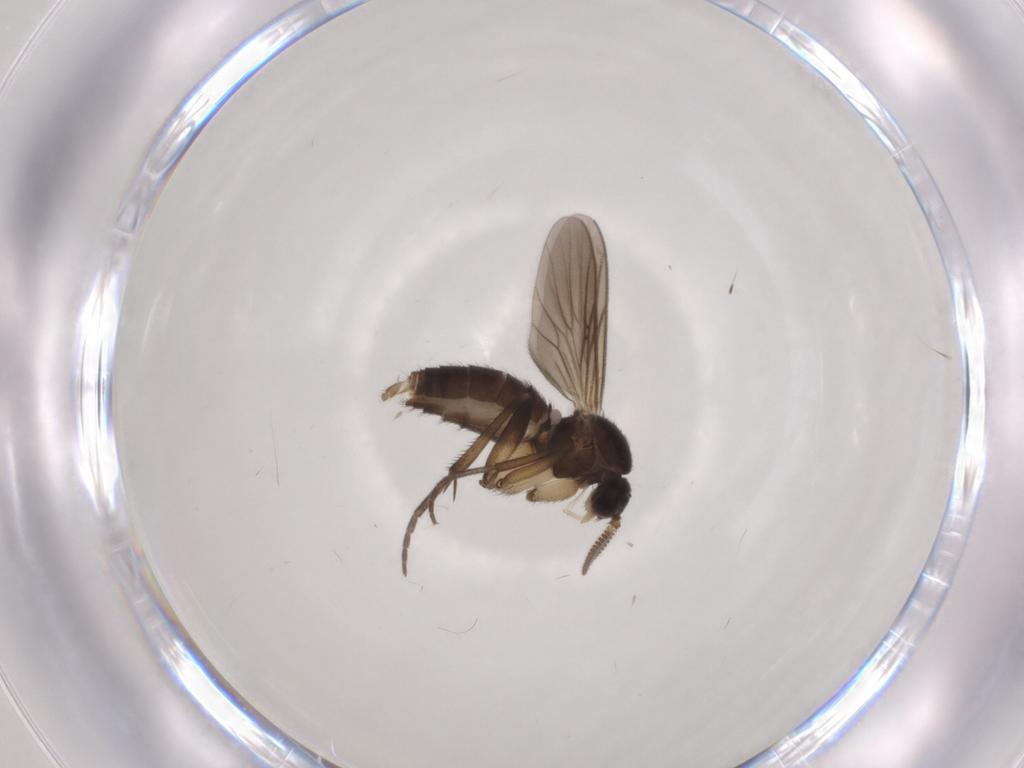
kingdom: Animalia
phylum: Arthropoda
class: Insecta
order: Diptera
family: Mycetophilidae
